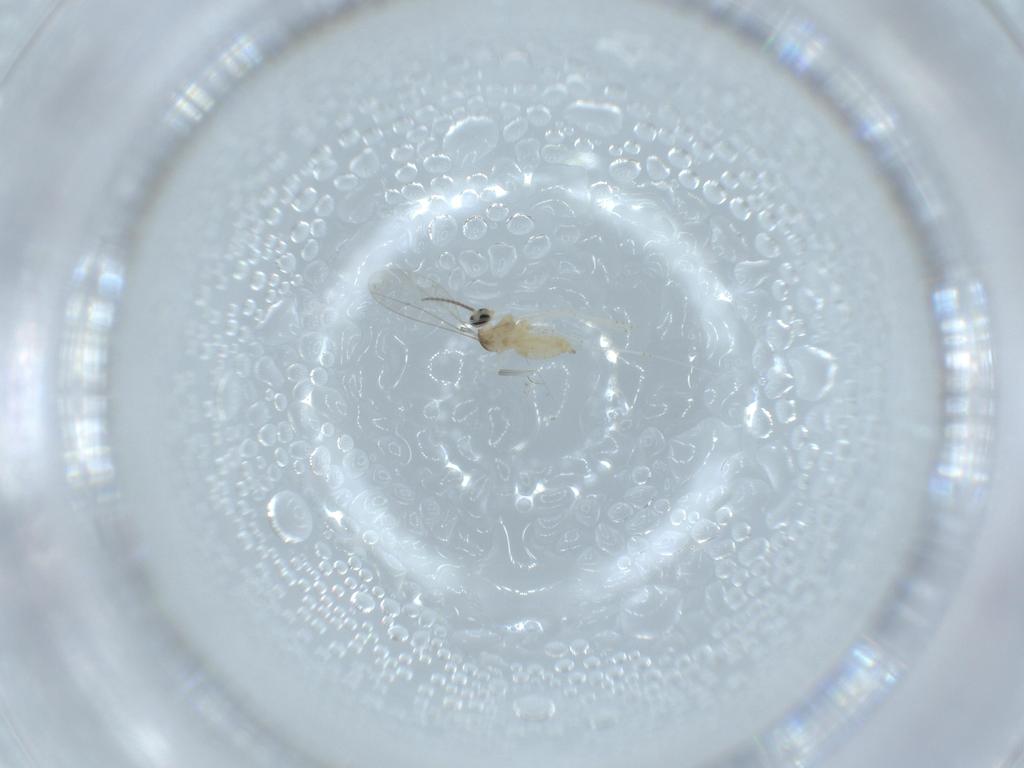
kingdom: Animalia
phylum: Arthropoda
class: Insecta
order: Diptera
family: Cecidomyiidae
